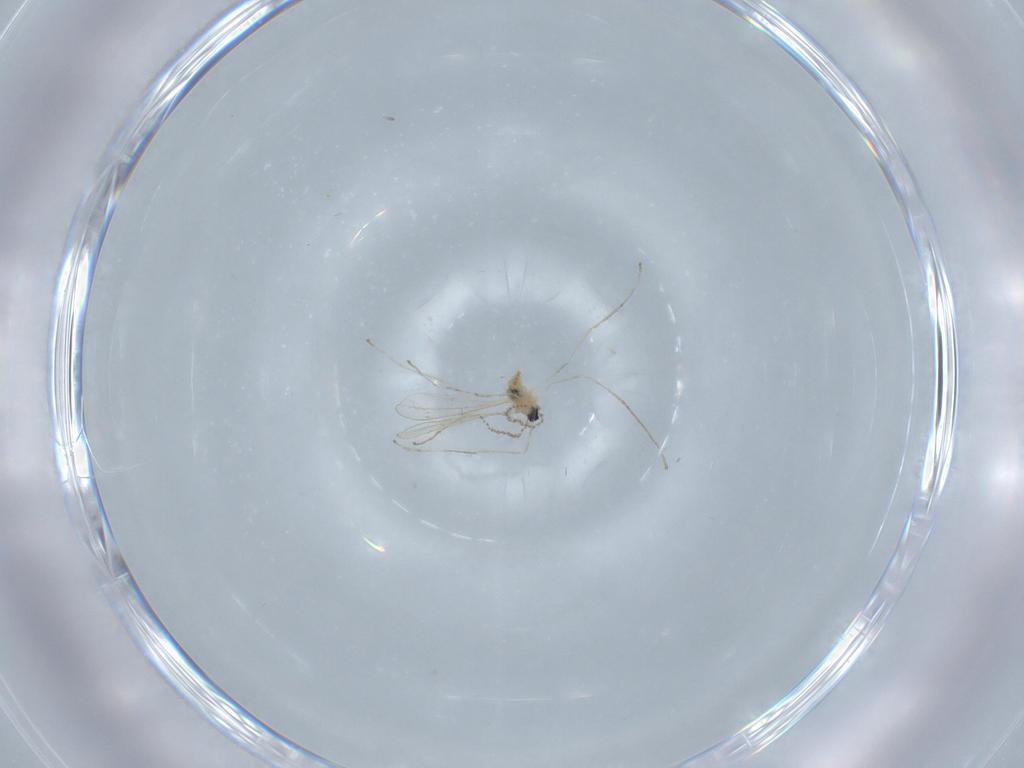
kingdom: Animalia
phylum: Arthropoda
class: Insecta
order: Diptera
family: Cecidomyiidae
